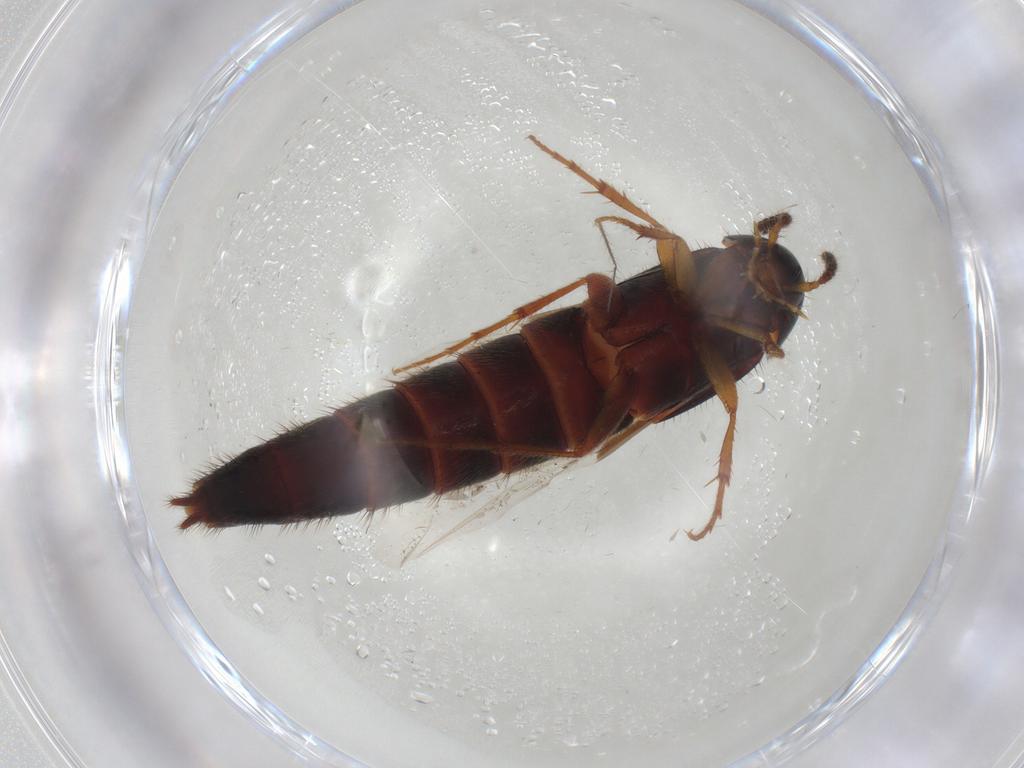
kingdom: Animalia
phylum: Arthropoda
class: Insecta
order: Coleoptera
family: Staphylinidae
